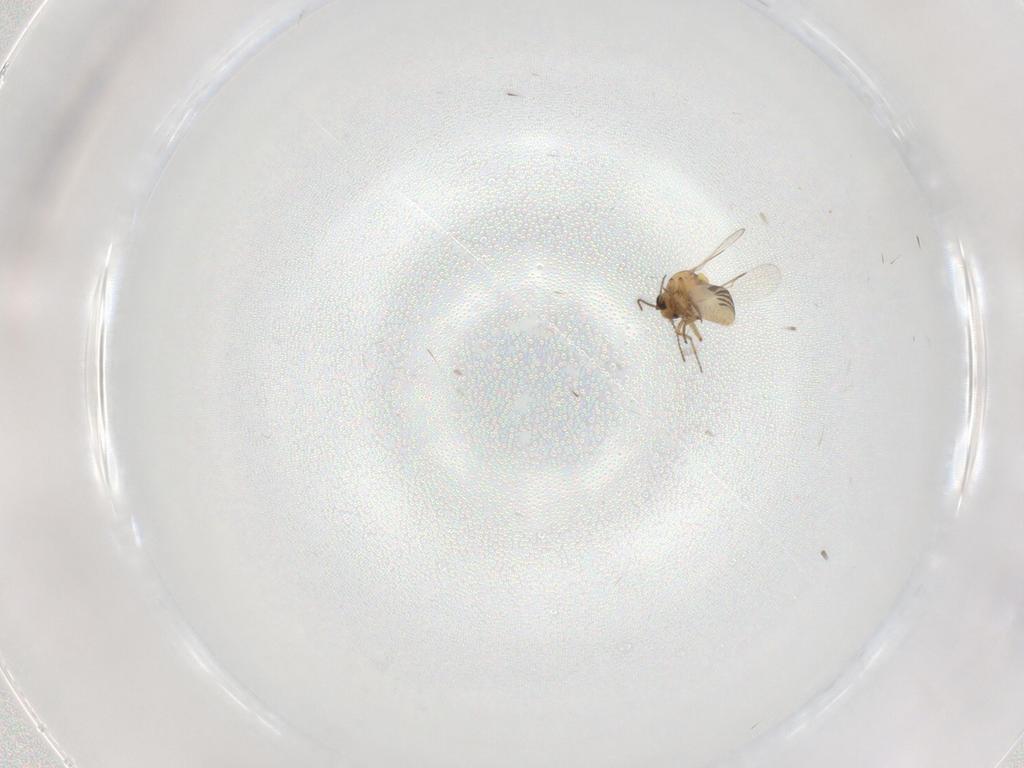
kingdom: Animalia
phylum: Arthropoda
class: Insecta
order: Diptera
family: Ceratopogonidae
